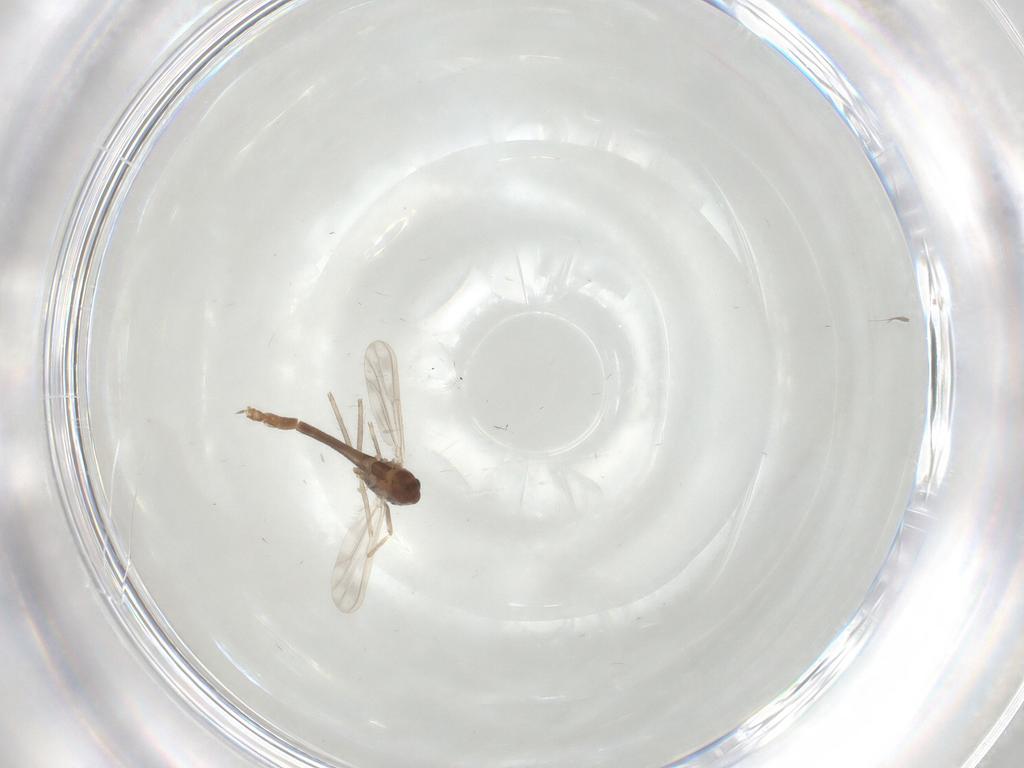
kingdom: Animalia
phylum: Arthropoda
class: Insecta
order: Diptera
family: Chironomidae
